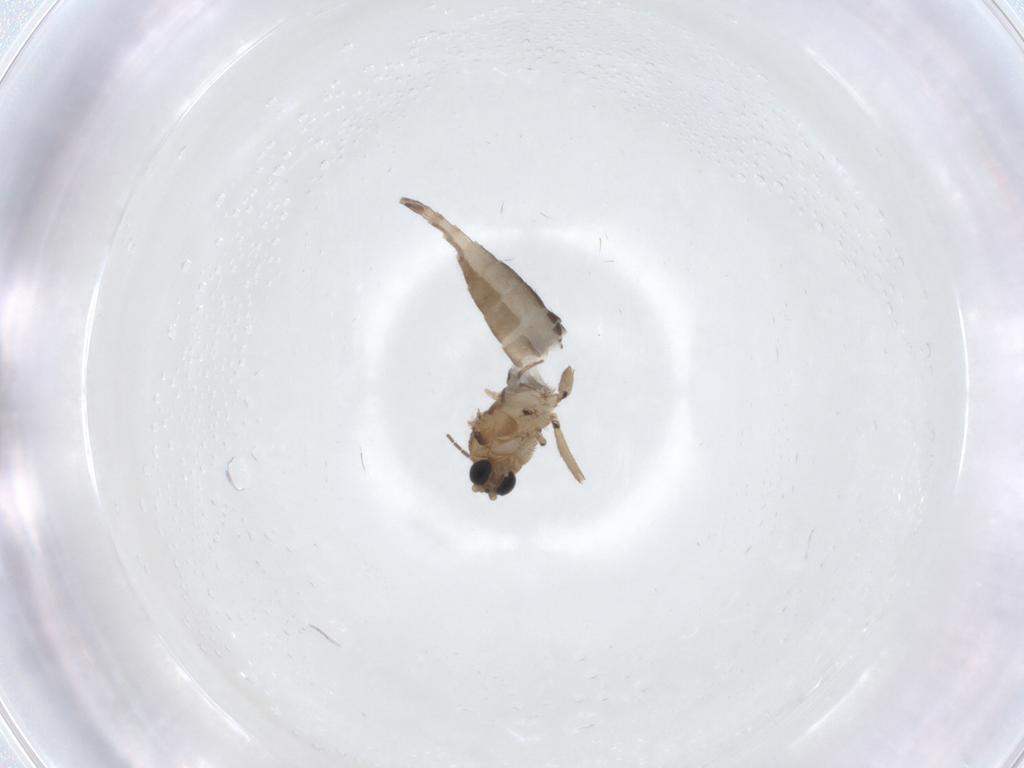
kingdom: Animalia
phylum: Arthropoda
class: Insecta
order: Diptera
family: Sciaridae
